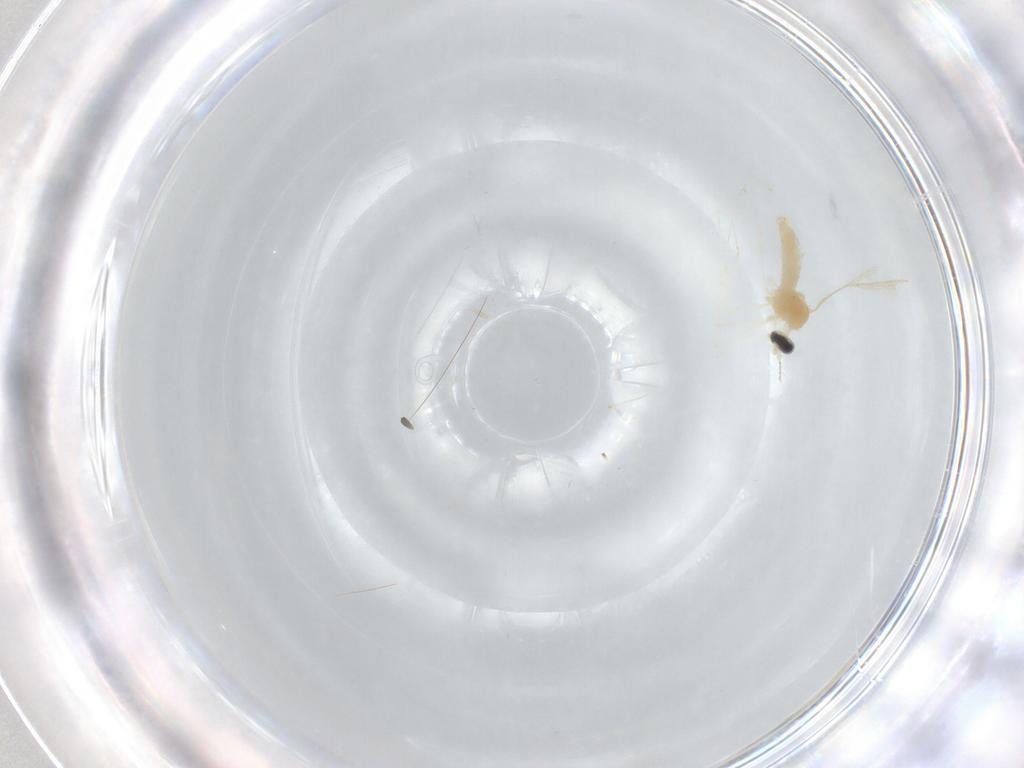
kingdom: Animalia
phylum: Arthropoda
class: Insecta
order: Diptera
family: Cecidomyiidae
